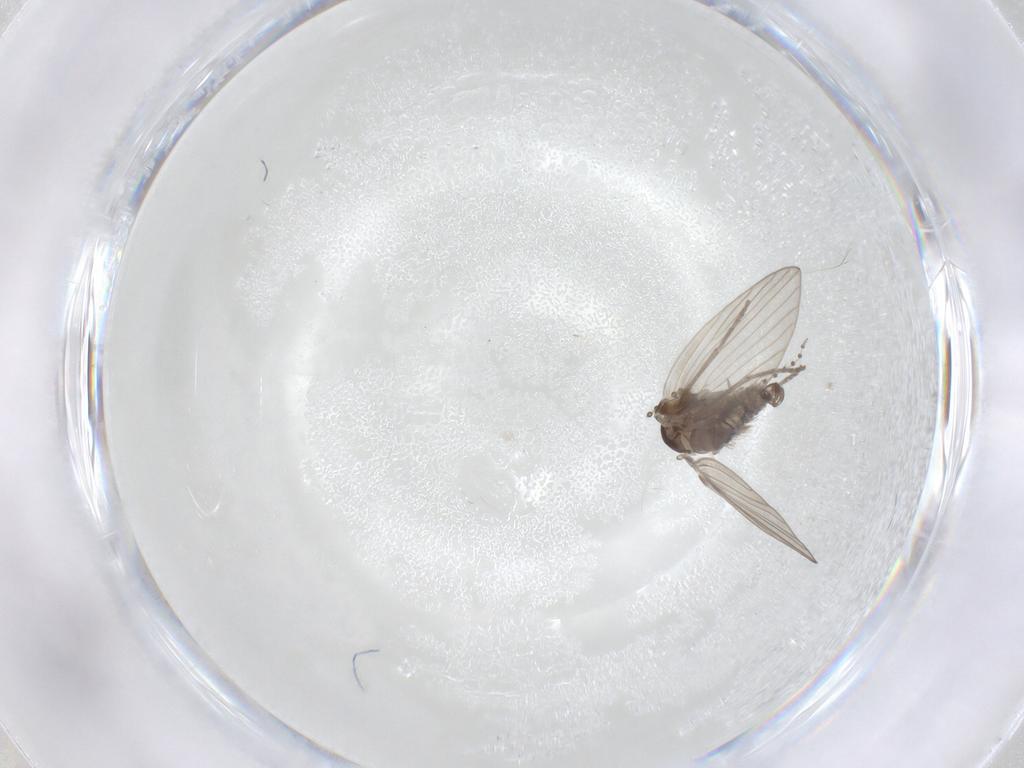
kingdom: Animalia
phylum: Arthropoda
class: Insecta
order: Diptera
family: Psychodidae
